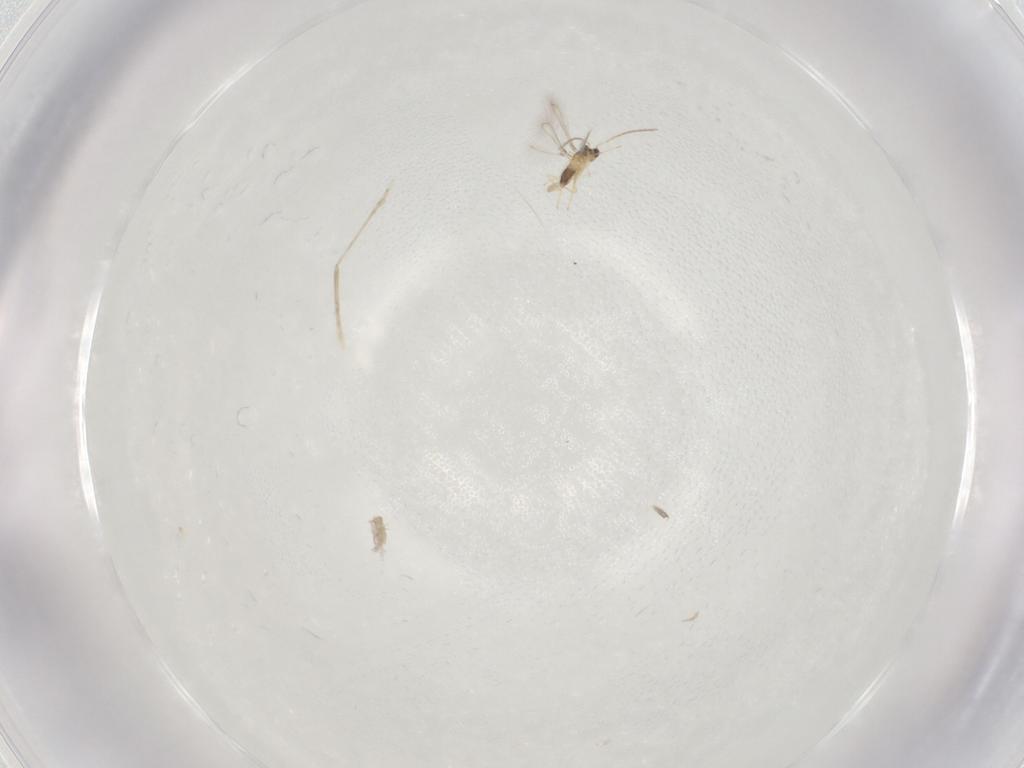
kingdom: Animalia
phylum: Arthropoda
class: Insecta
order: Hymenoptera
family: Mymaridae
